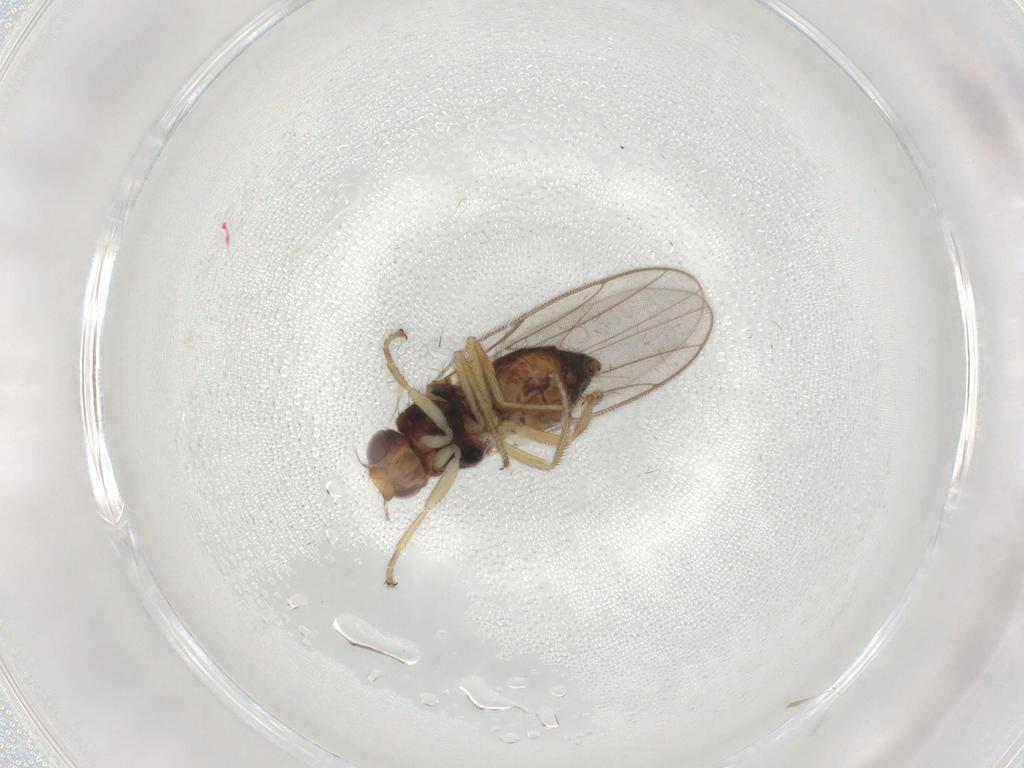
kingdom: Animalia
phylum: Arthropoda
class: Insecta
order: Diptera
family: Chloropidae
